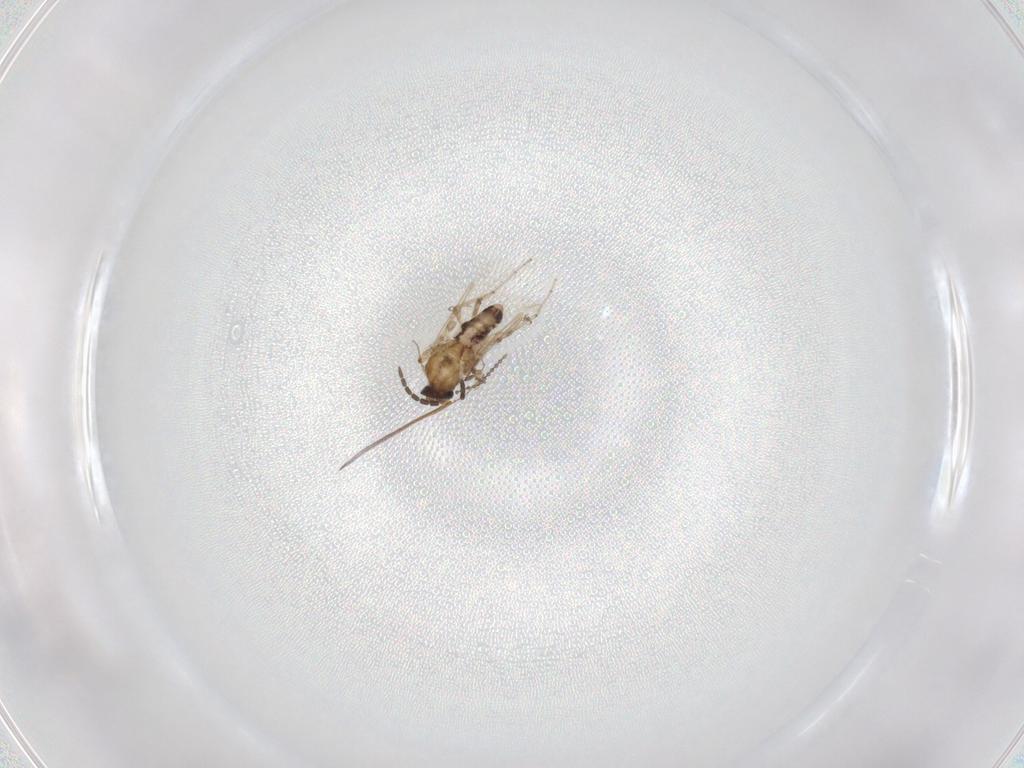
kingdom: Animalia
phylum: Arthropoda
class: Insecta
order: Diptera
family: Ceratopogonidae
